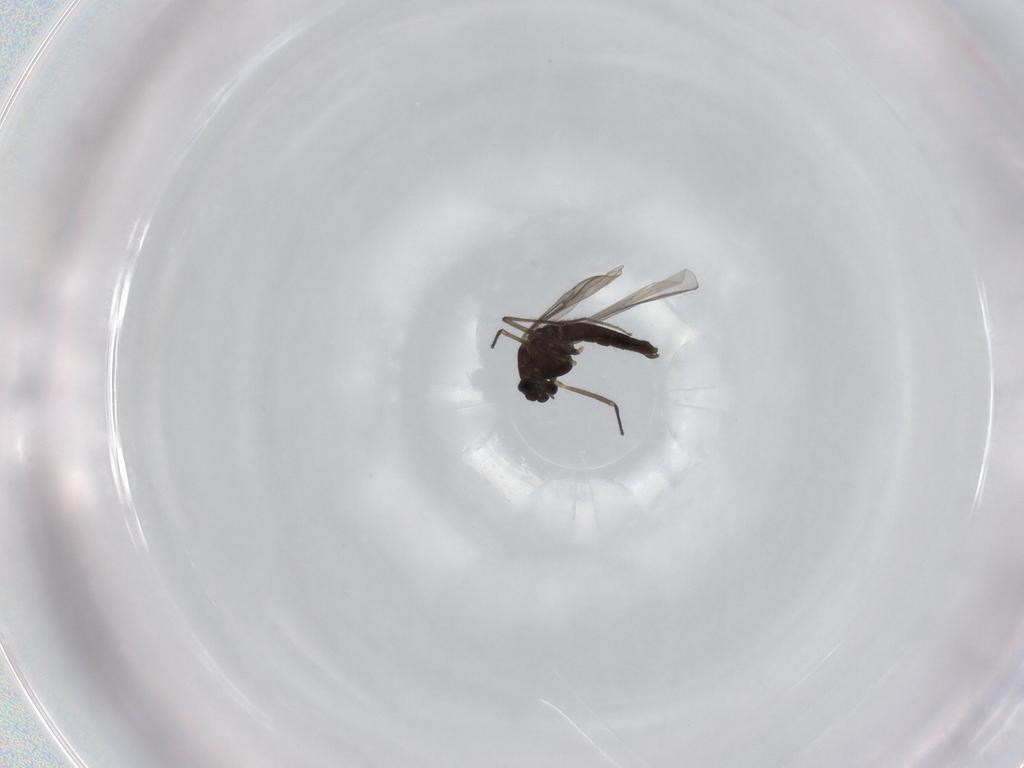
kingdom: Animalia
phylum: Arthropoda
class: Insecta
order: Diptera
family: Chironomidae
